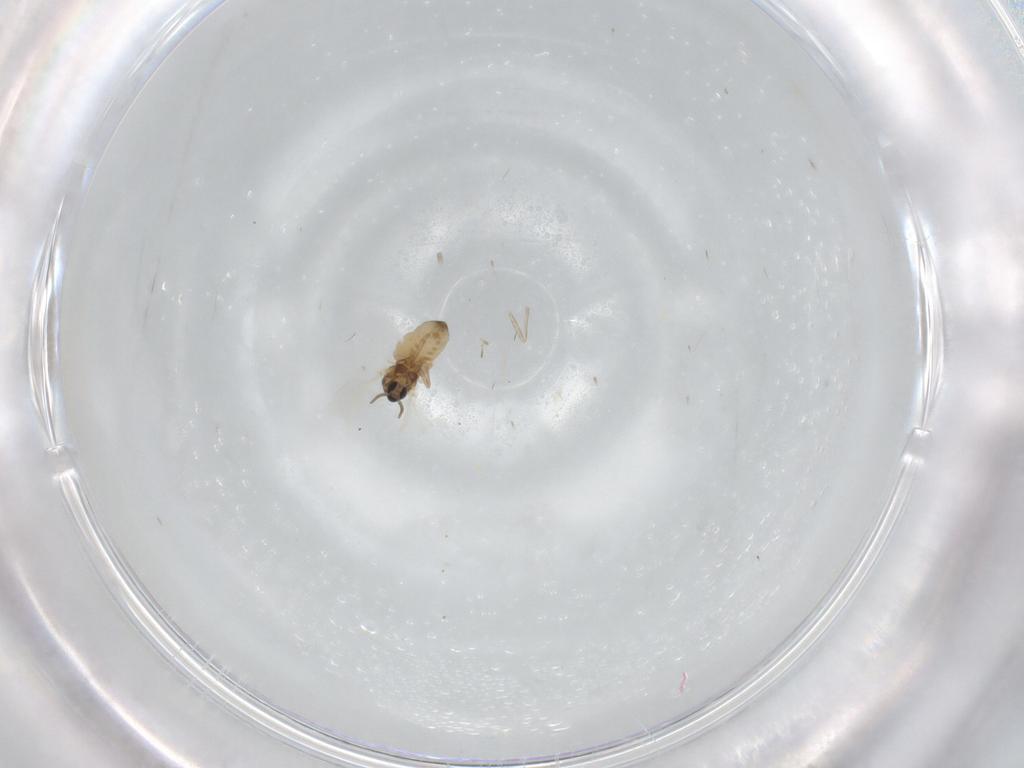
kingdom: Animalia
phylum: Arthropoda
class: Insecta
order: Diptera
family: Cecidomyiidae
